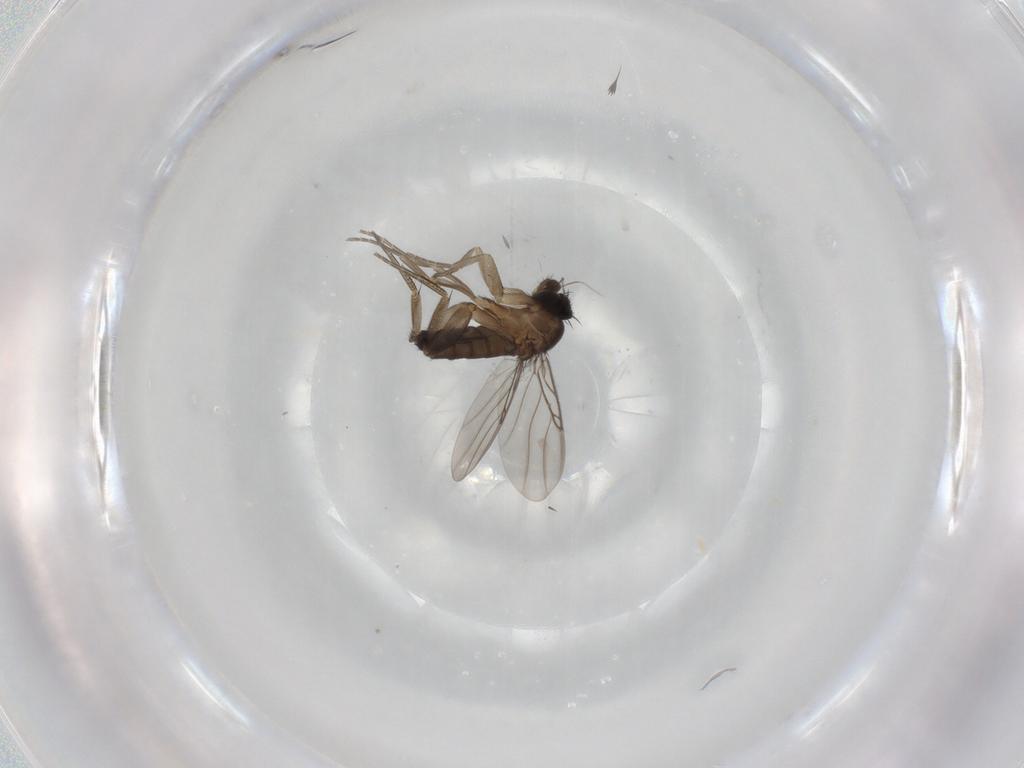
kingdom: Animalia
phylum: Arthropoda
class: Insecta
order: Diptera
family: Phoridae
